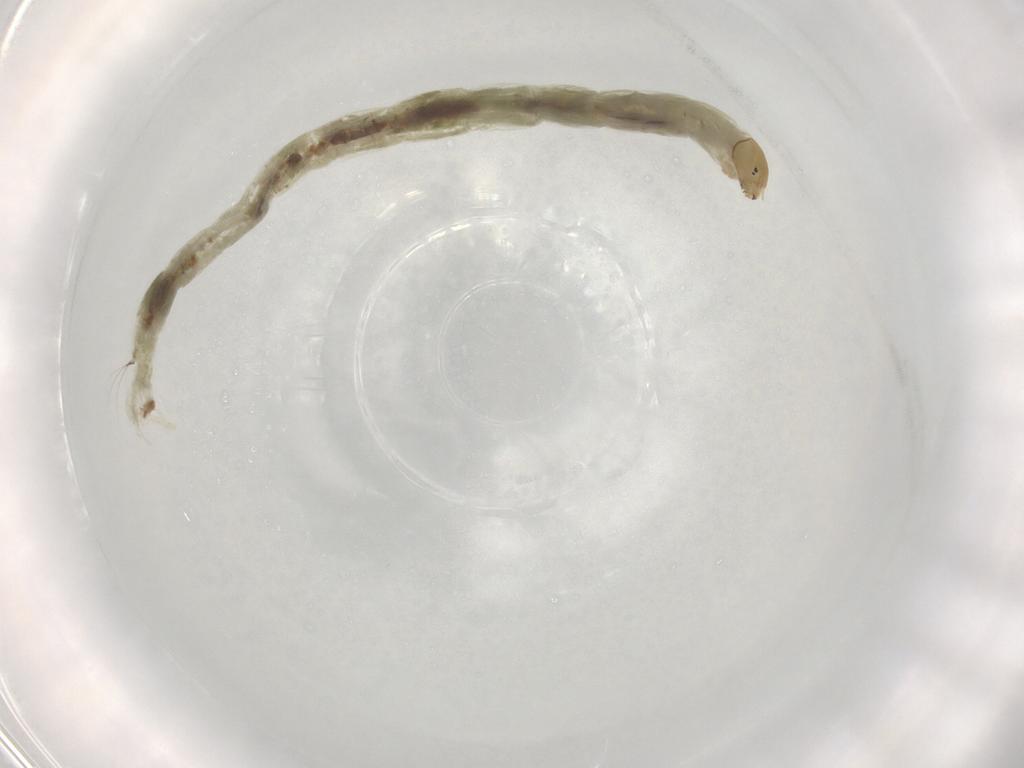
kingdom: Animalia
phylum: Arthropoda
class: Insecta
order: Diptera
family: Chironomidae
